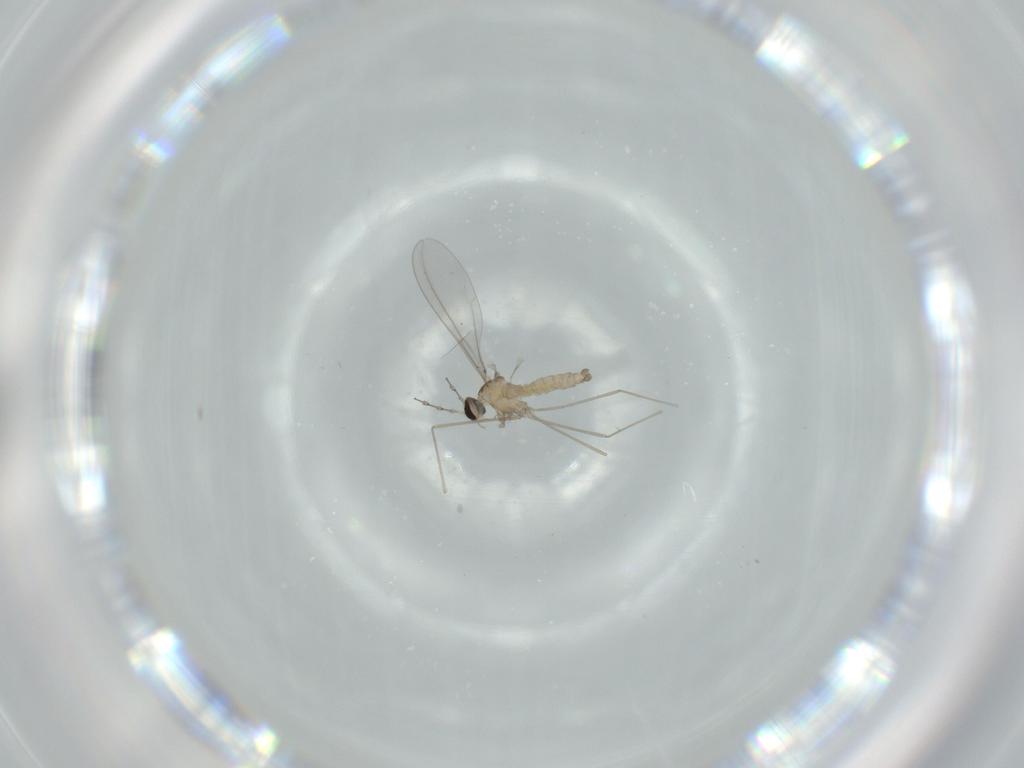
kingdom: Animalia
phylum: Arthropoda
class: Insecta
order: Diptera
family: Cecidomyiidae
